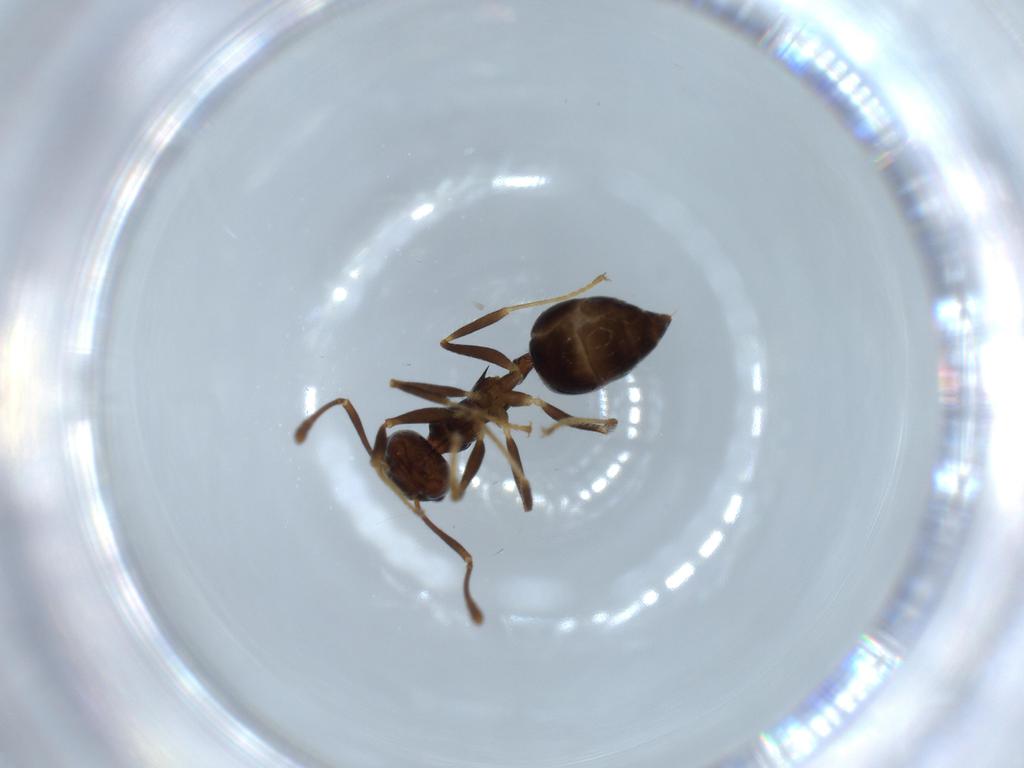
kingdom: Animalia
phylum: Arthropoda
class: Insecta
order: Hymenoptera
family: Formicidae
